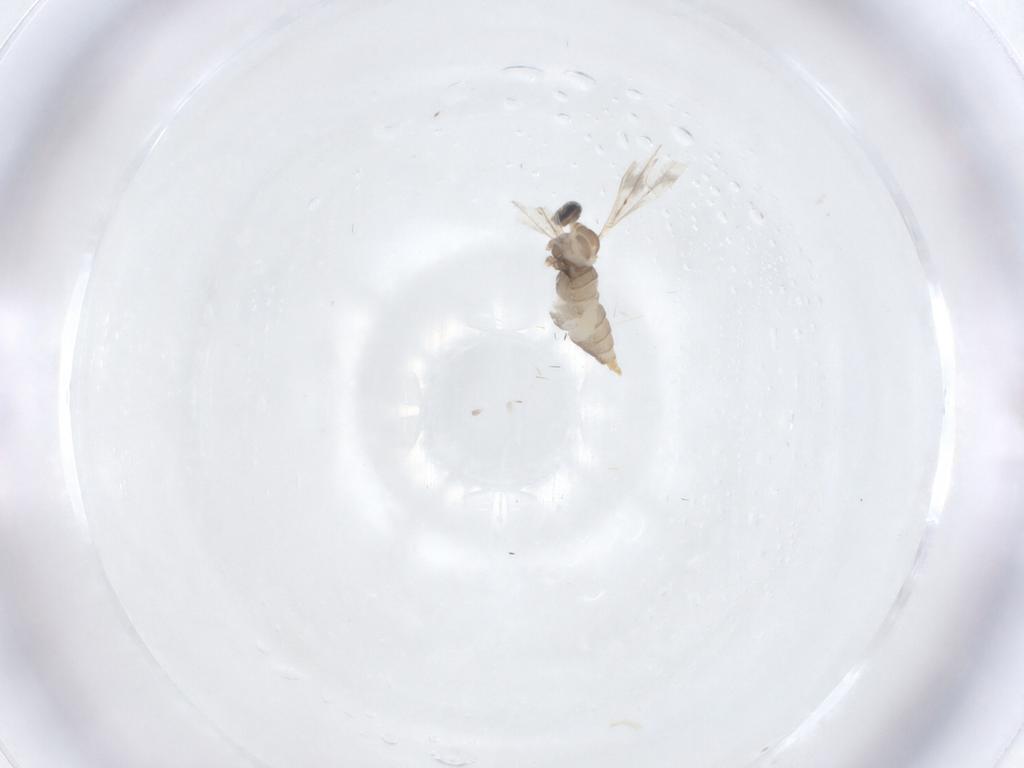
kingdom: Animalia
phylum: Arthropoda
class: Insecta
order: Diptera
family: Cecidomyiidae
